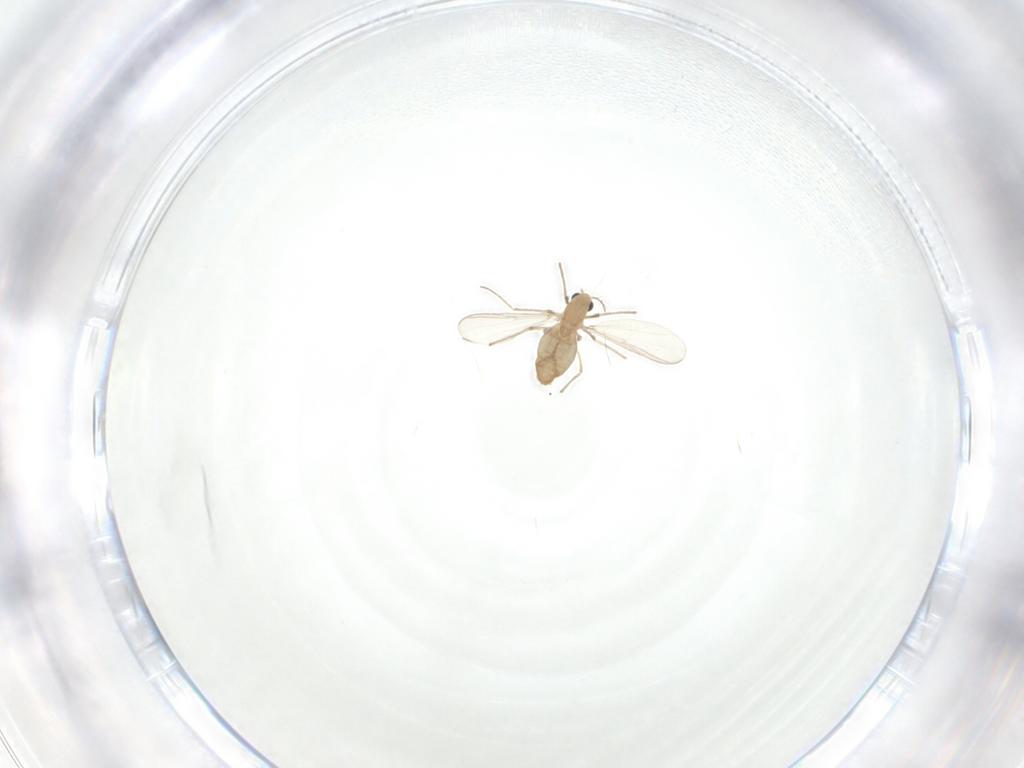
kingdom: Animalia
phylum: Arthropoda
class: Insecta
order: Diptera
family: Chironomidae
